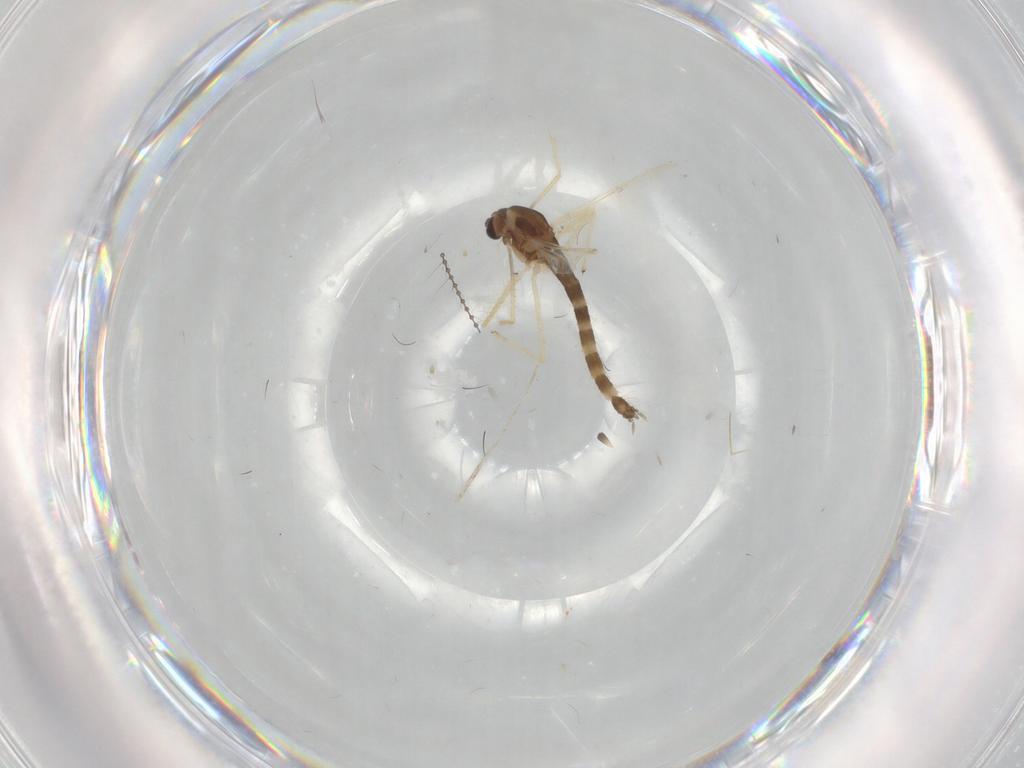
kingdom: Animalia
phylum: Arthropoda
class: Insecta
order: Diptera
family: Chironomidae
